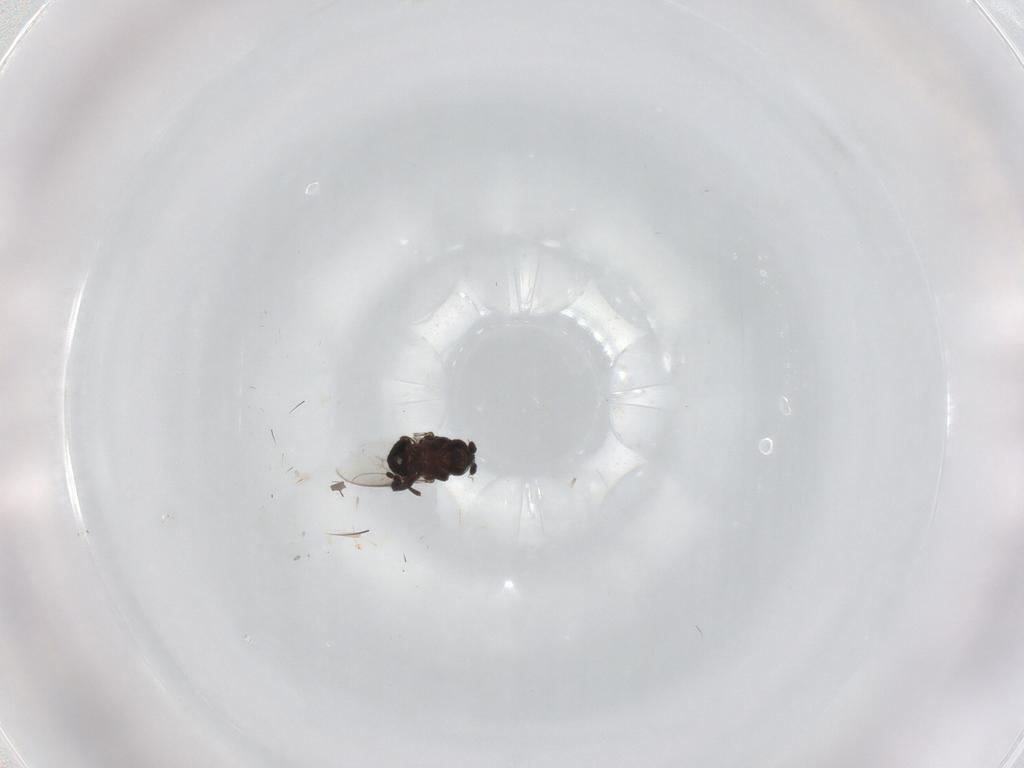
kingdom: Animalia
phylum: Arthropoda
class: Insecta
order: Diptera
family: Sphaeroceridae
